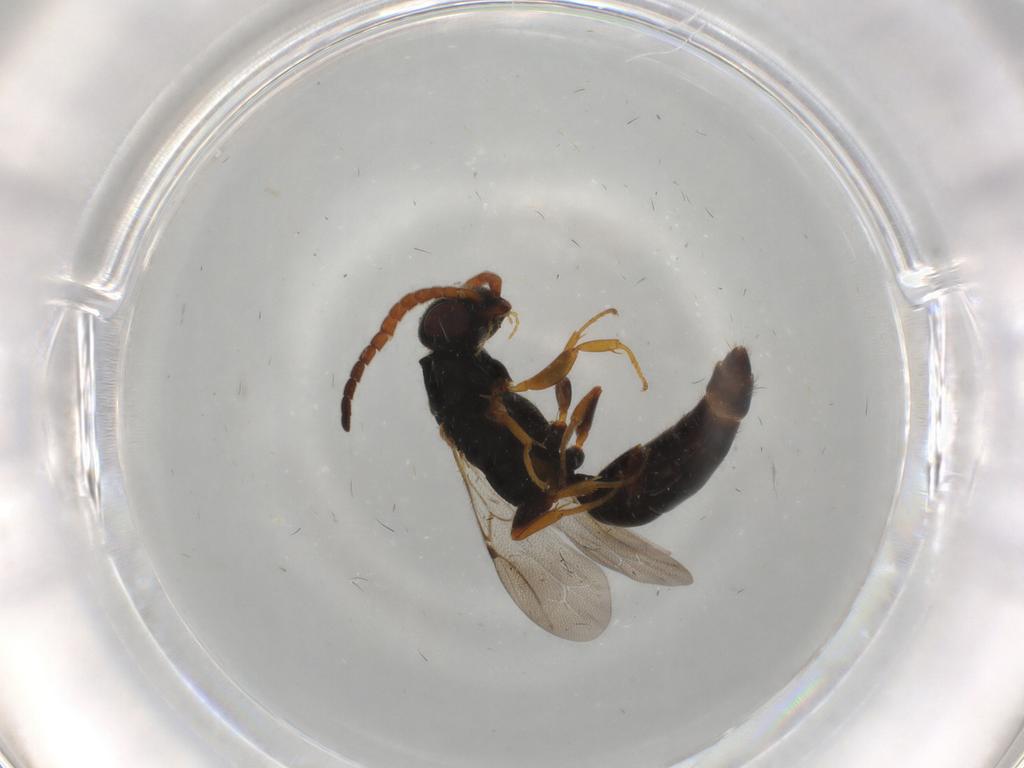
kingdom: Animalia
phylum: Arthropoda
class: Insecta
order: Hymenoptera
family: Bethylidae
